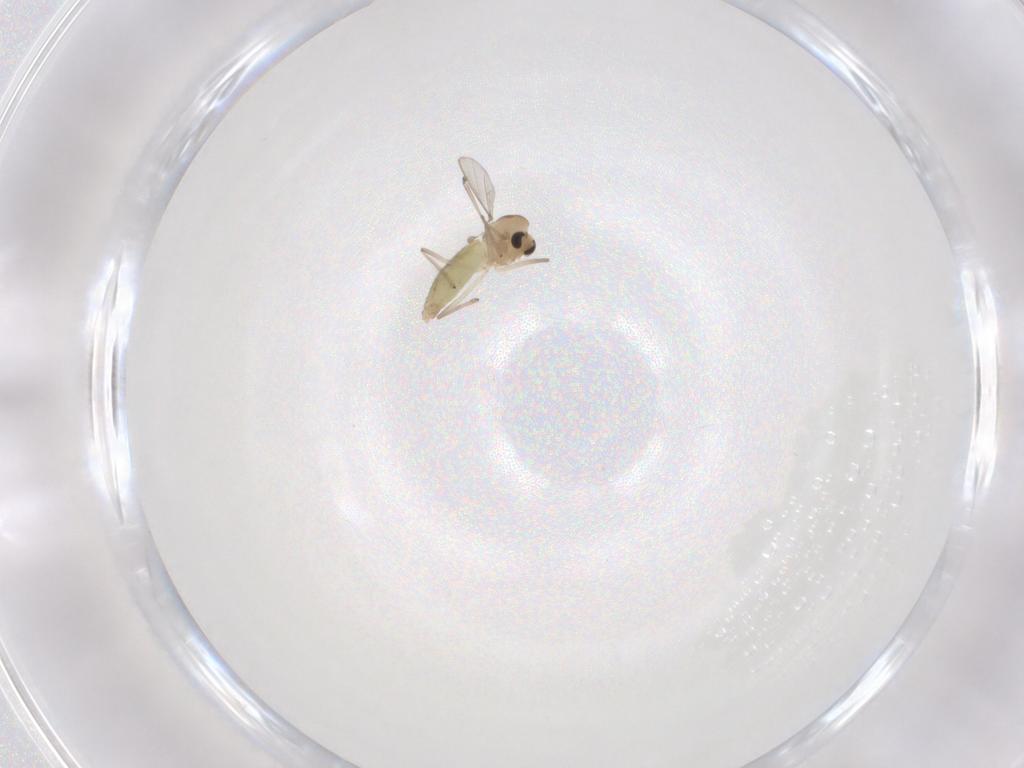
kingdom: Animalia
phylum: Arthropoda
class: Insecta
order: Diptera
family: Chironomidae
